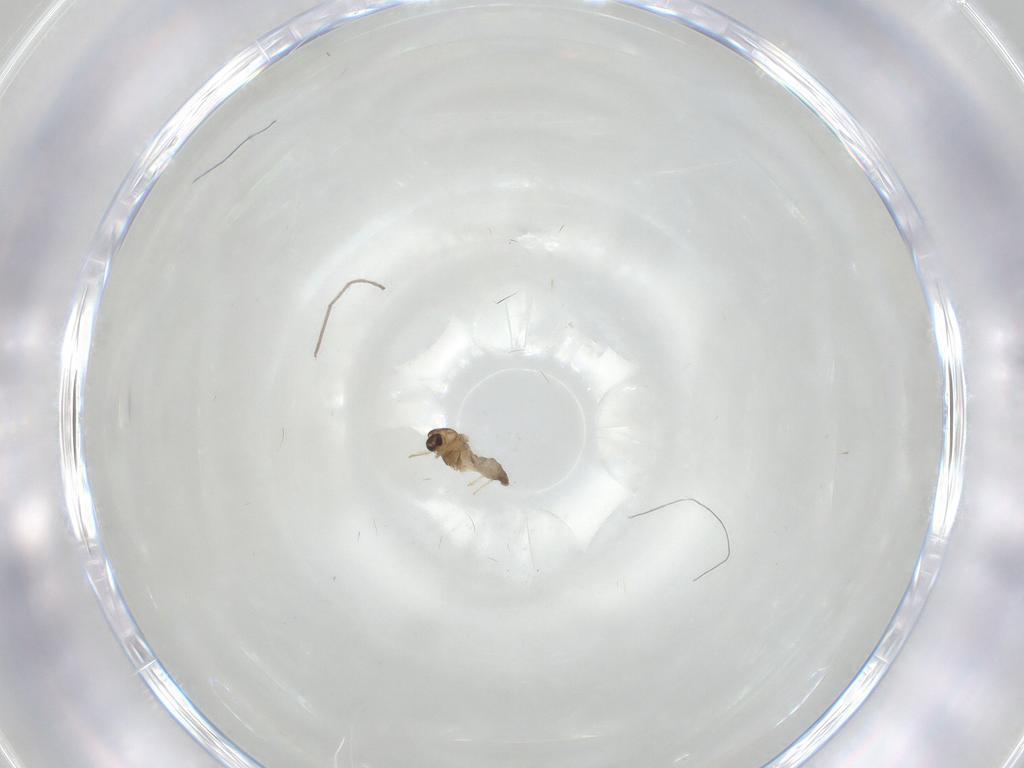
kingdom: Animalia
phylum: Arthropoda
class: Insecta
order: Diptera
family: Chironomidae
